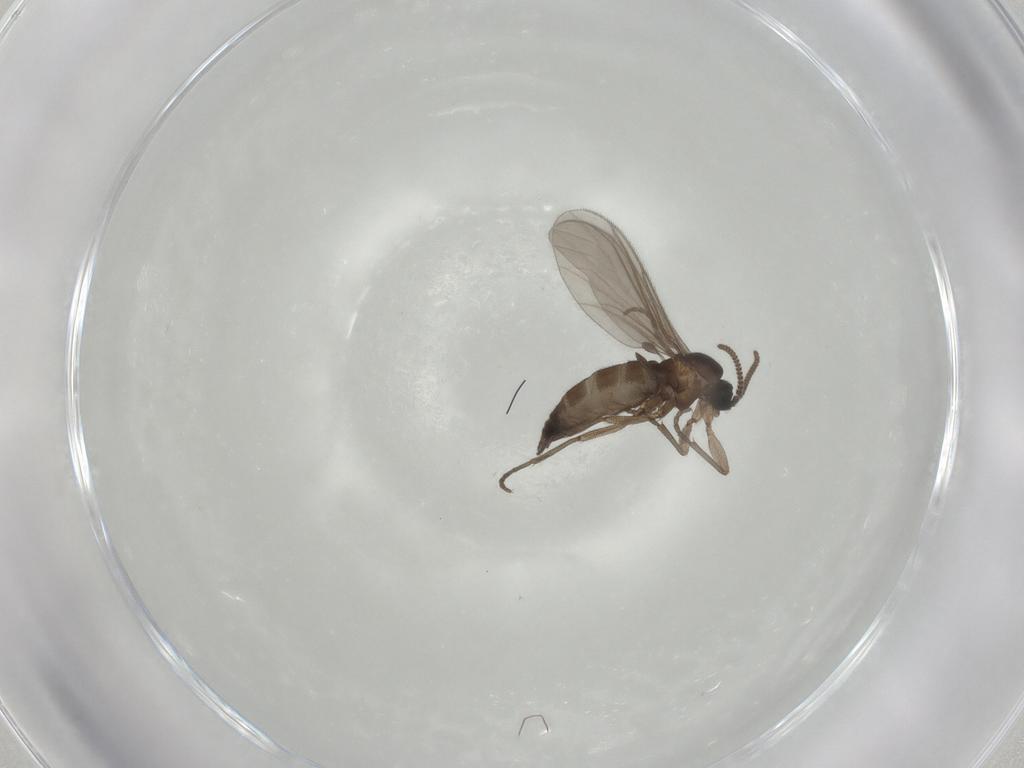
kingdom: Animalia
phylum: Arthropoda
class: Insecta
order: Diptera
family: Sciaridae
